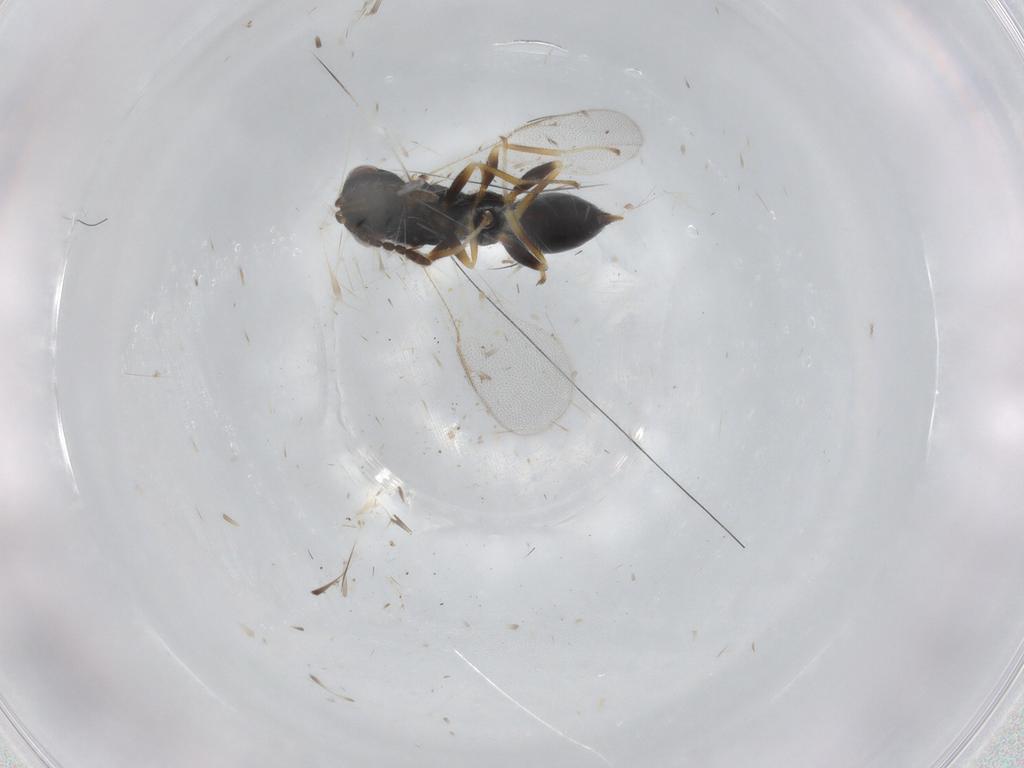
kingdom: Animalia
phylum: Arthropoda
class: Insecta
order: Hymenoptera
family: Eurytomidae
